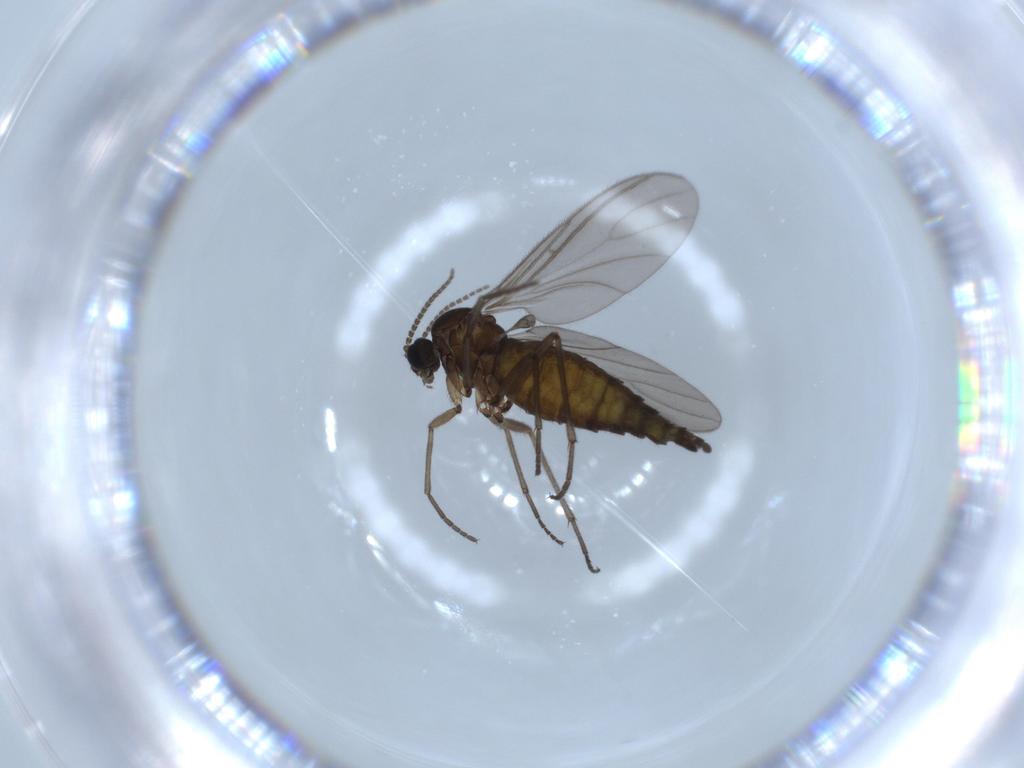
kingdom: Animalia
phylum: Arthropoda
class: Insecta
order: Diptera
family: Sciaridae
